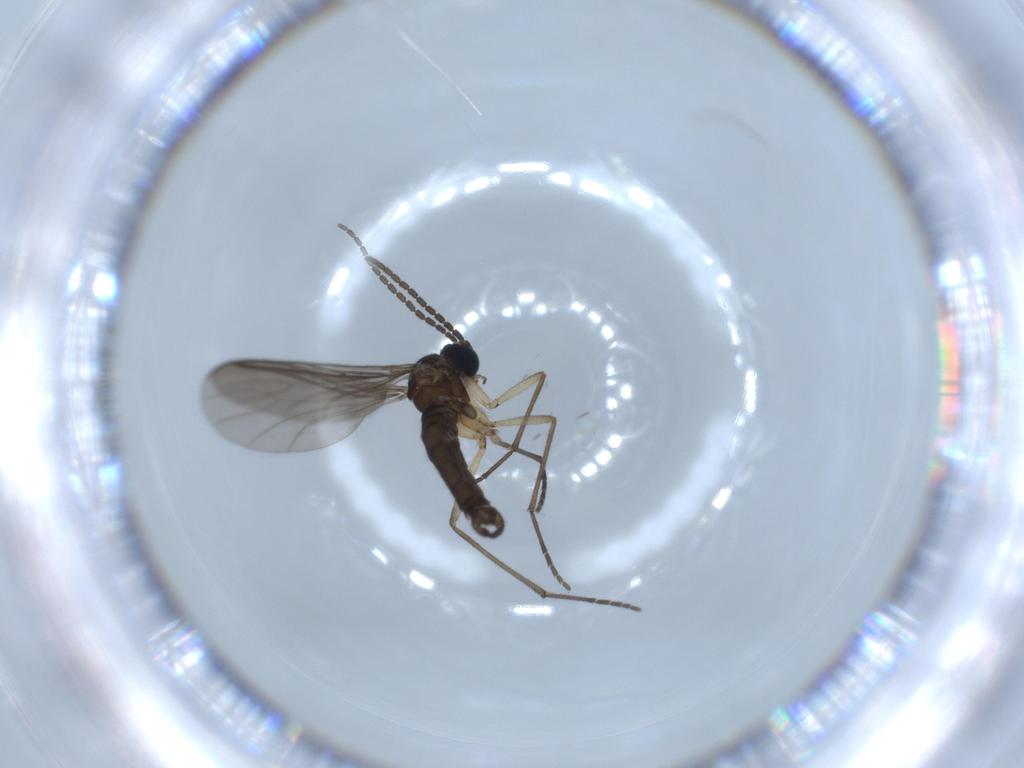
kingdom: Animalia
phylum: Arthropoda
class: Insecta
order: Diptera
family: Sciaridae
